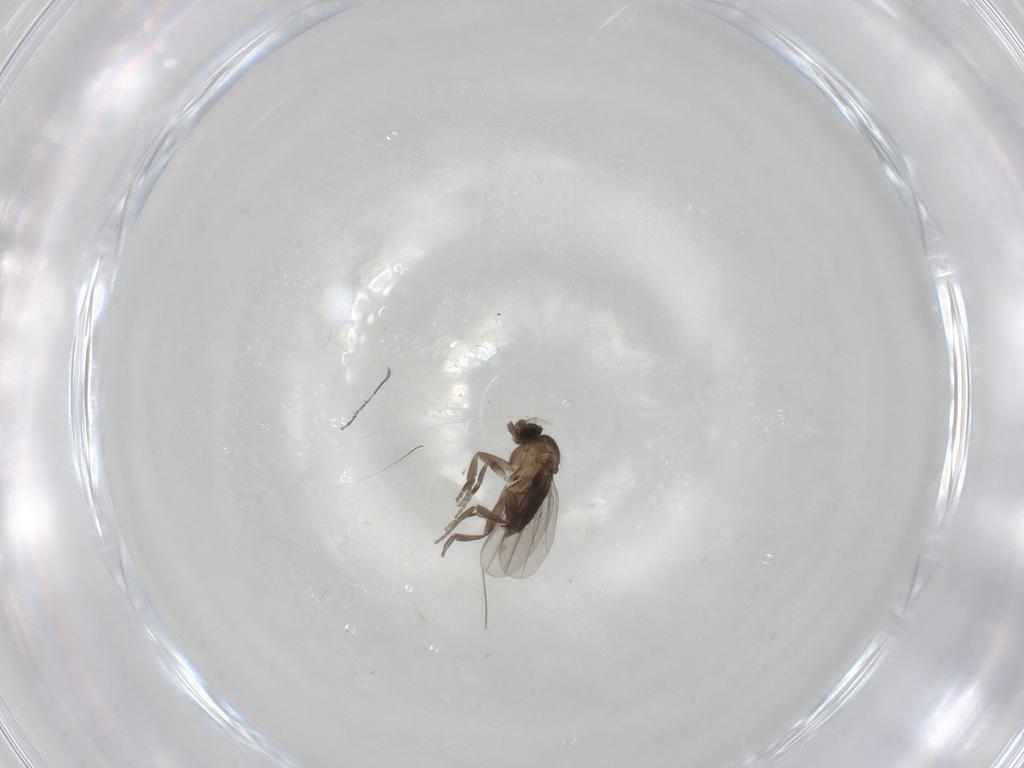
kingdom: Animalia
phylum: Arthropoda
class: Insecta
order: Diptera
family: Phoridae
